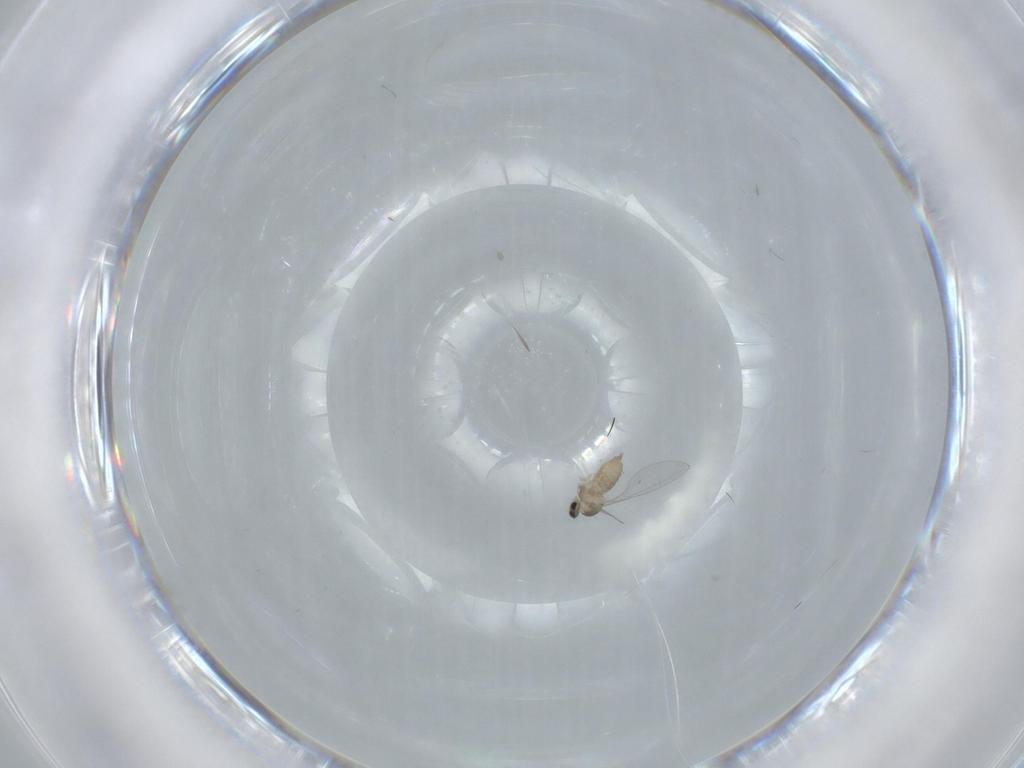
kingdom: Animalia
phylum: Arthropoda
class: Insecta
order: Diptera
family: Cecidomyiidae
